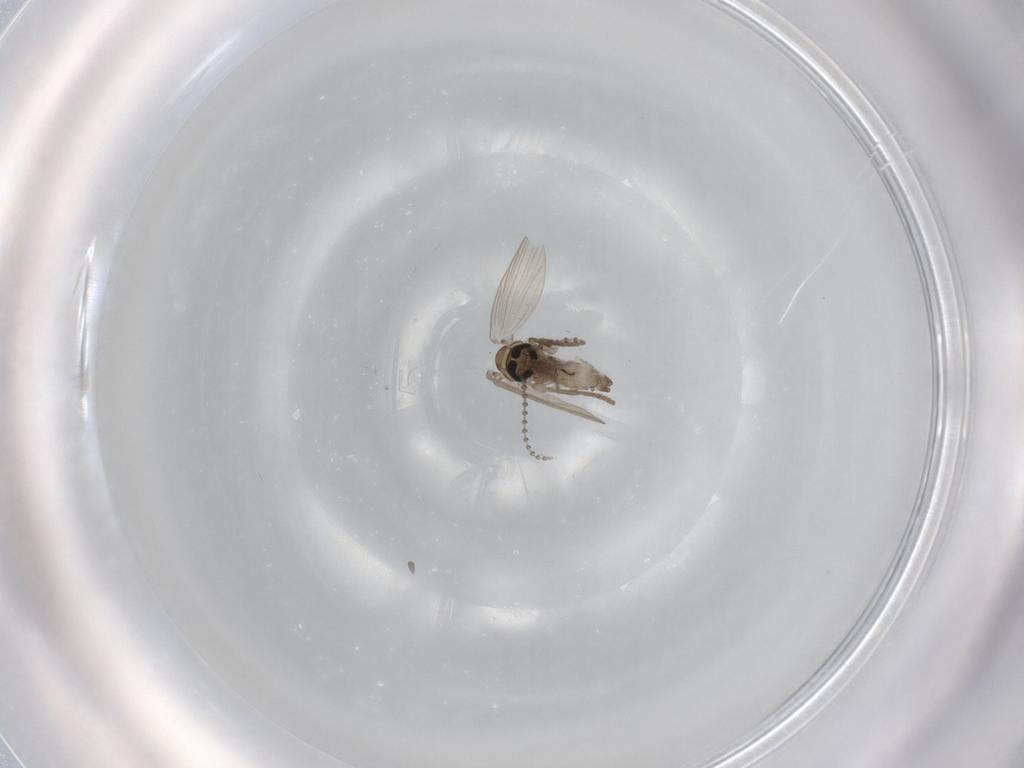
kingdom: Animalia
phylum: Arthropoda
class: Insecta
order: Diptera
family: Psychodidae
